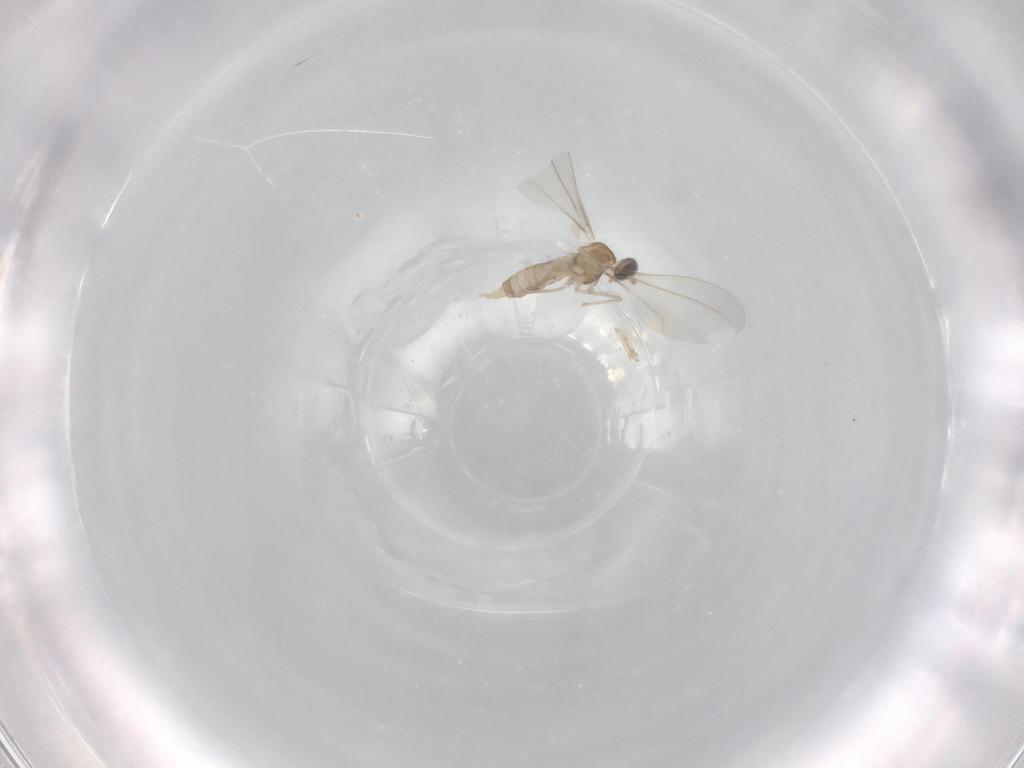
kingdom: Animalia
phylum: Arthropoda
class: Insecta
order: Diptera
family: Cecidomyiidae
